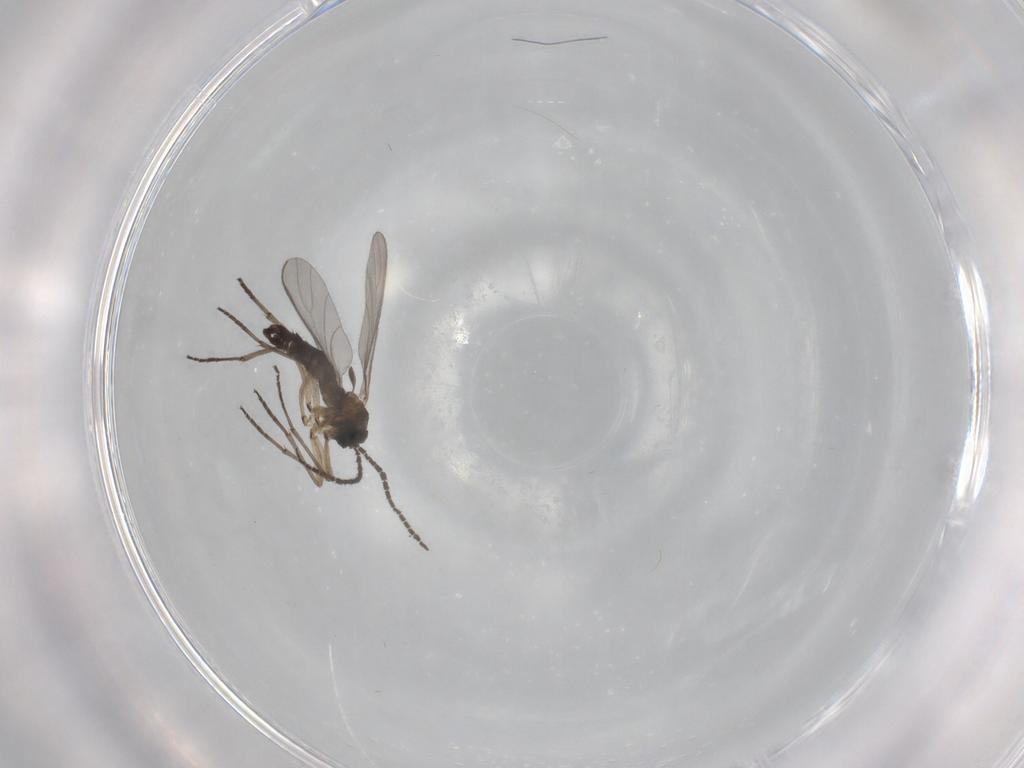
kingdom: Animalia
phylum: Arthropoda
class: Insecta
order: Diptera
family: Sciaridae
